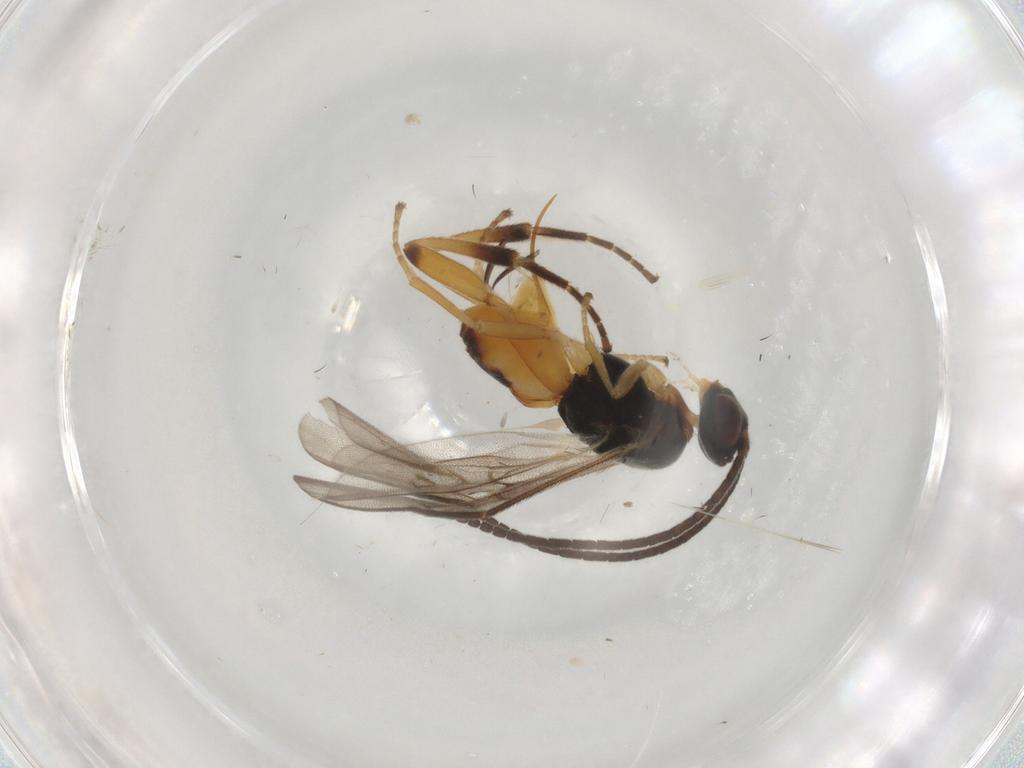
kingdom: Animalia
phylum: Arthropoda
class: Insecta
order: Hymenoptera
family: Braconidae
